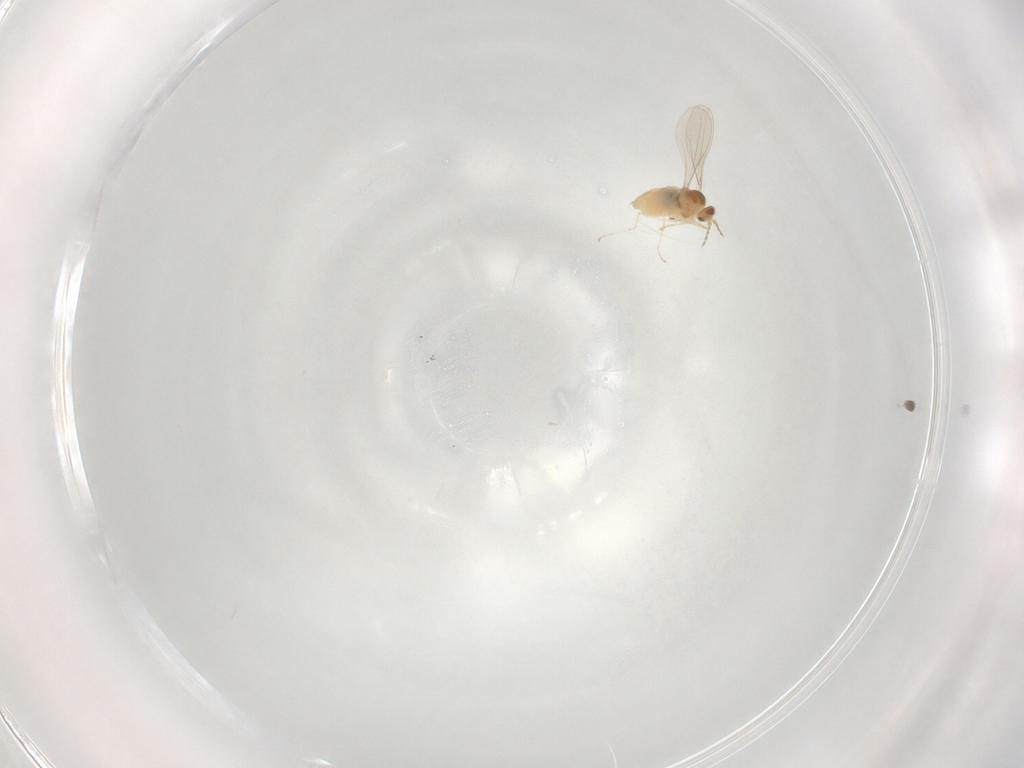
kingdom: Animalia
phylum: Arthropoda
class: Insecta
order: Diptera
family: Cecidomyiidae
